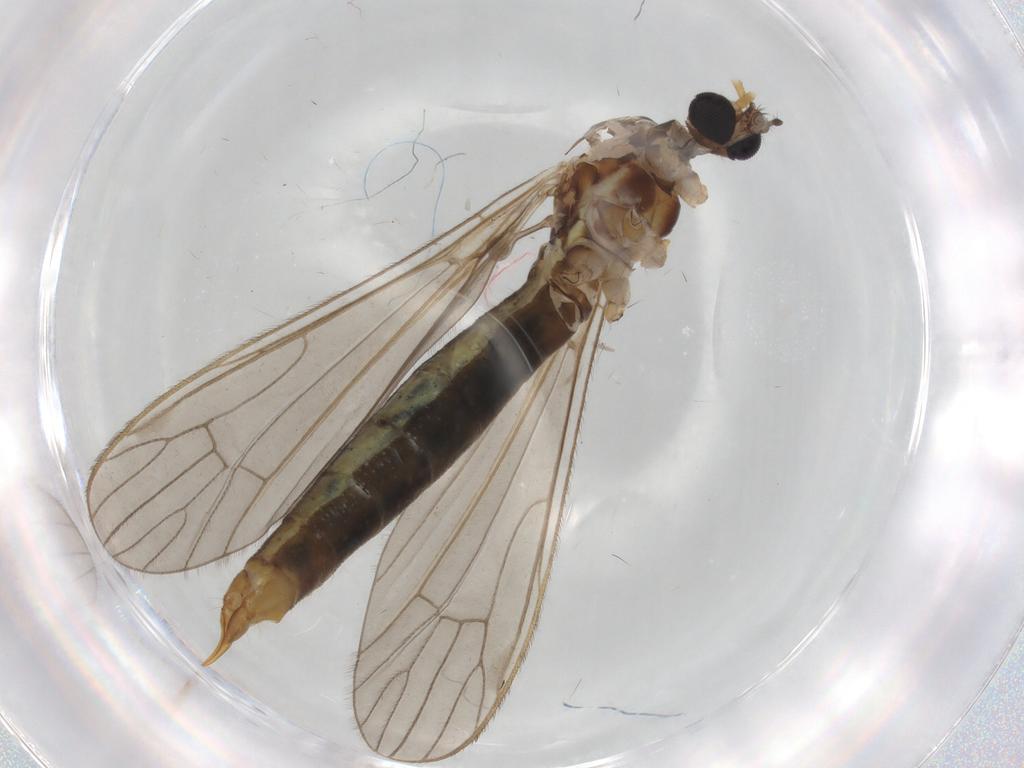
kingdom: Animalia
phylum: Arthropoda
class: Insecta
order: Diptera
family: Limoniidae
